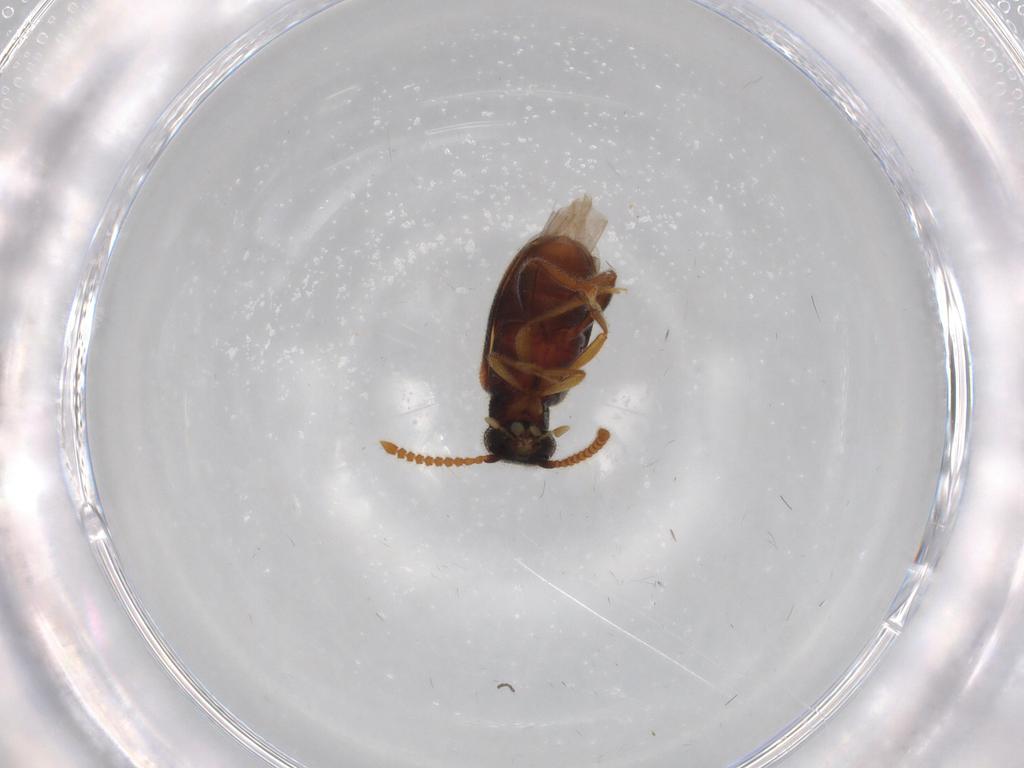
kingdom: Animalia
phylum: Arthropoda
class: Insecta
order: Coleoptera
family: Aderidae
